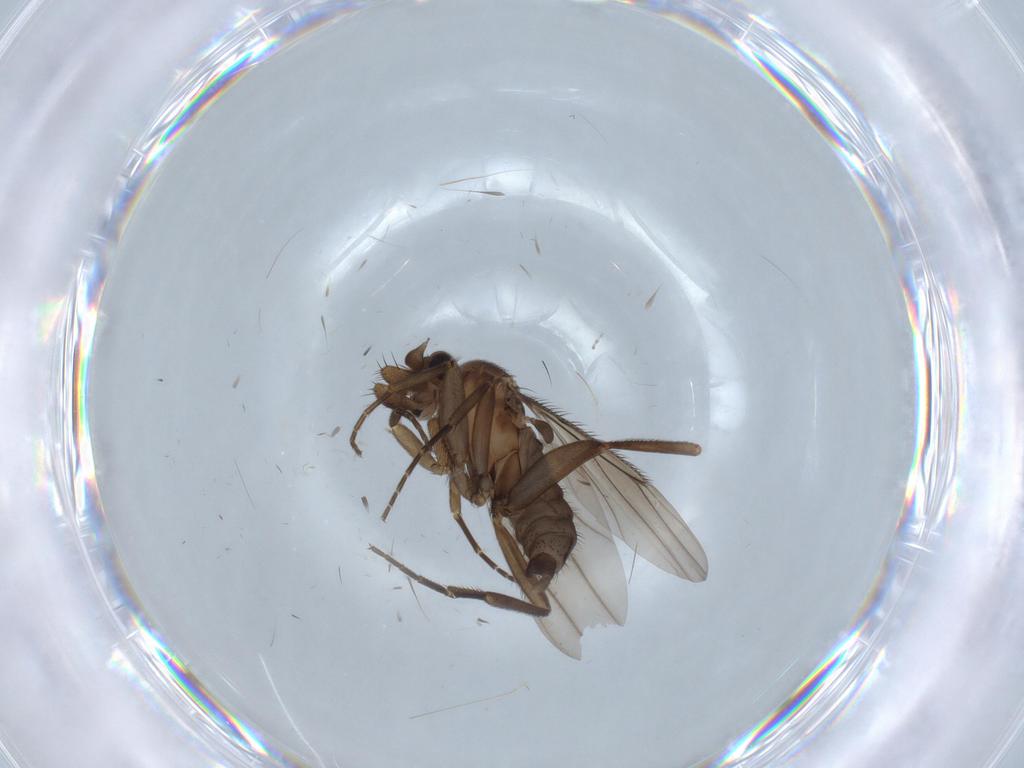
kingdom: Animalia
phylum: Arthropoda
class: Insecta
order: Diptera
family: Phoridae
